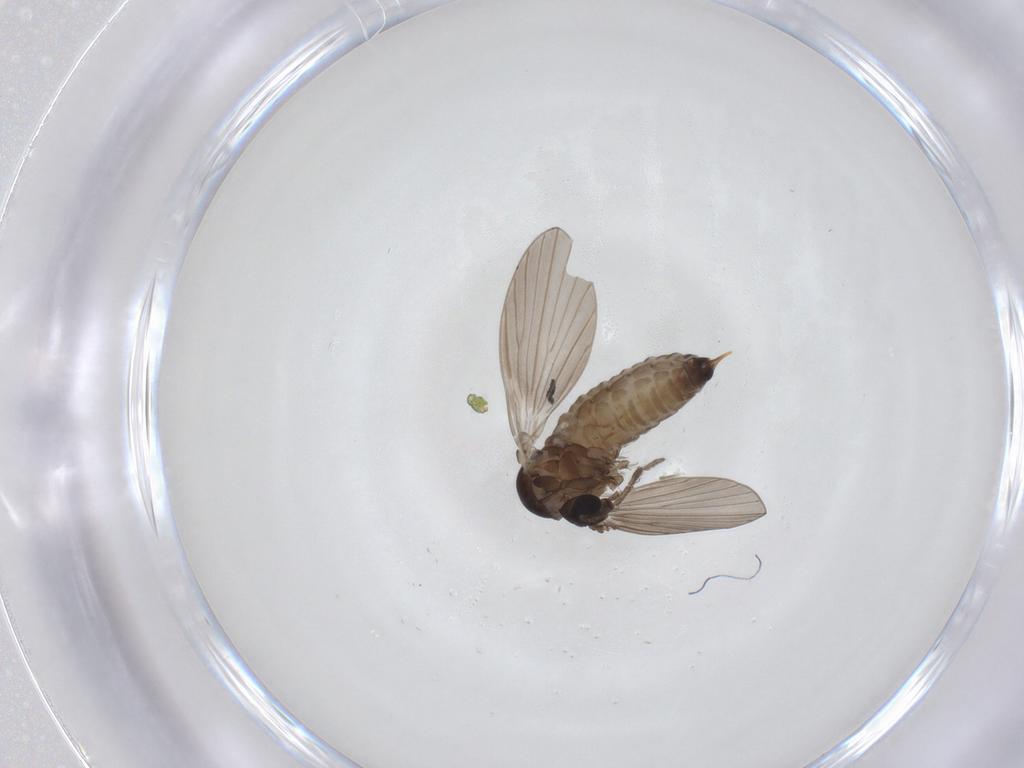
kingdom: Animalia
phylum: Arthropoda
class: Insecta
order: Diptera
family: Psychodidae
